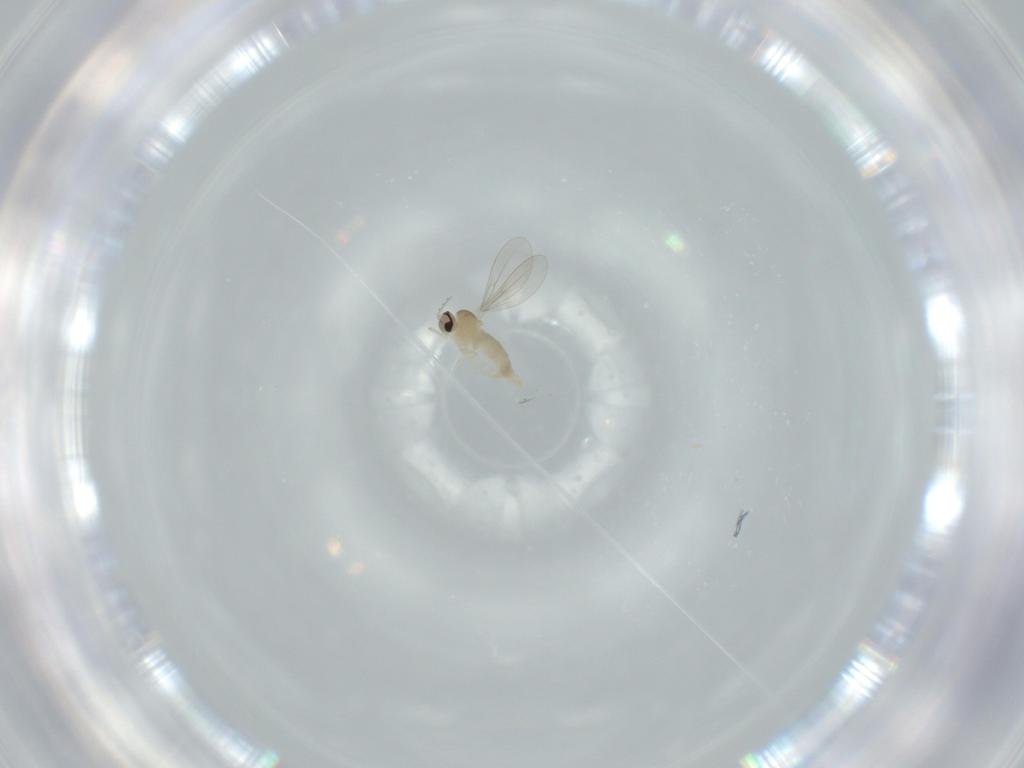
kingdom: Animalia
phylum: Arthropoda
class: Insecta
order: Diptera
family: Cecidomyiidae
